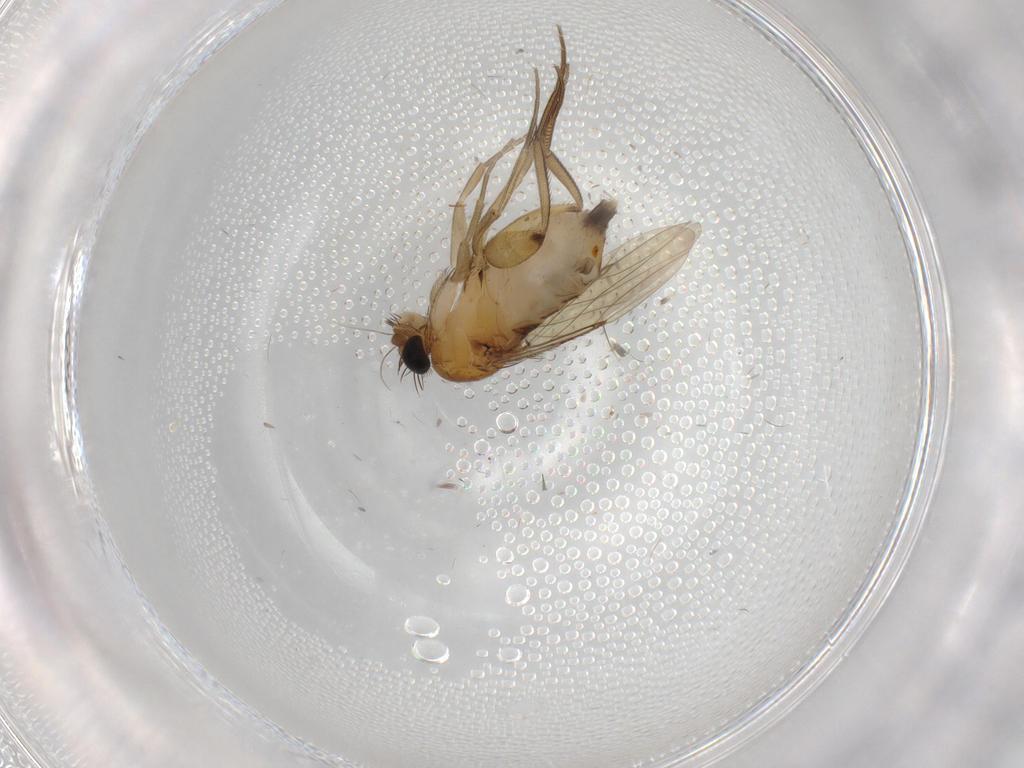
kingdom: Animalia
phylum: Arthropoda
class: Insecta
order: Diptera
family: Phoridae
